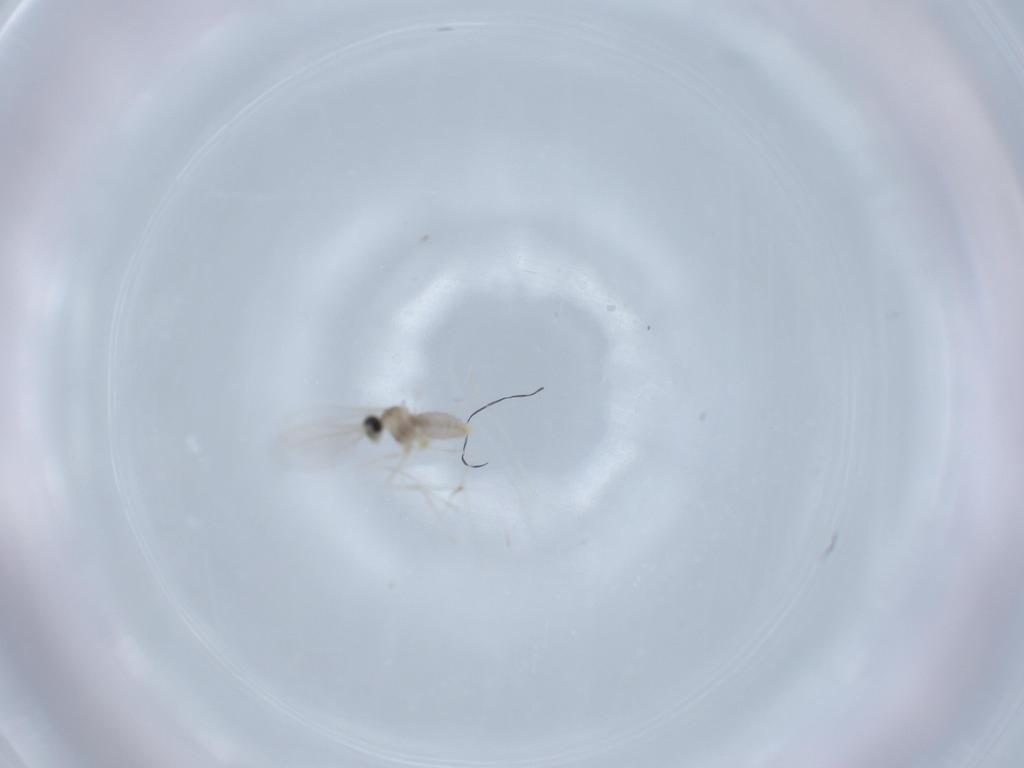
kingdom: Animalia
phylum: Arthropoda
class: Insecta
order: Diptera
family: Cecidomyiidae
